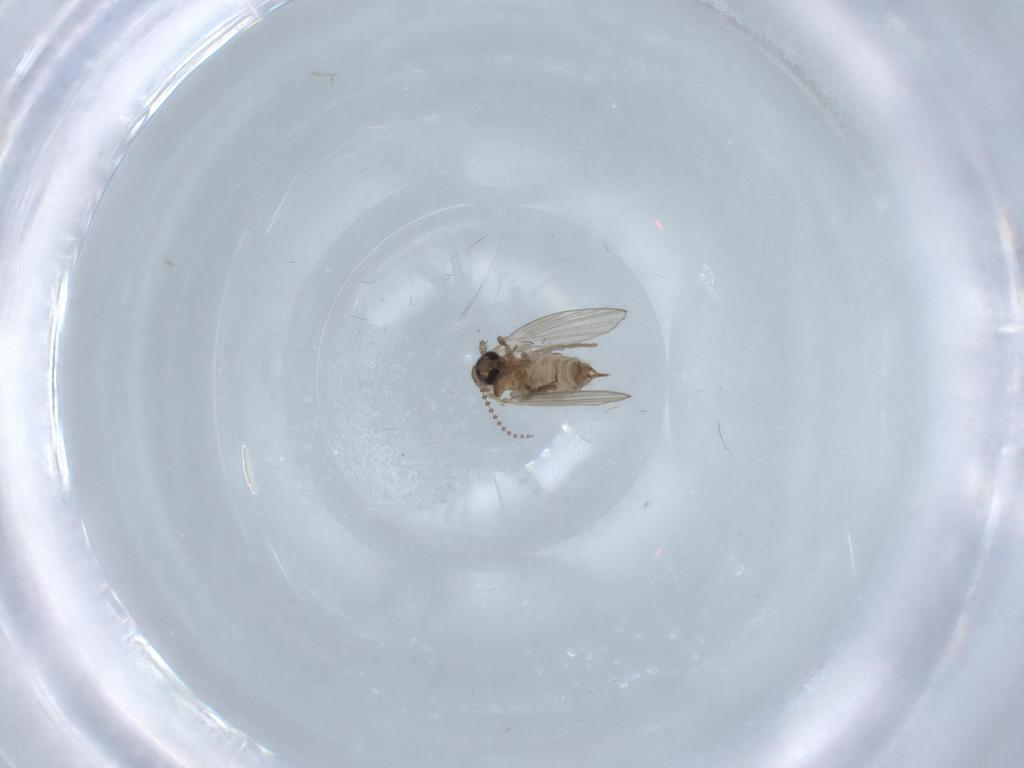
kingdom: Animalia
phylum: Arthropoda
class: Insecta
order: Diptera
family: Psychodidae
